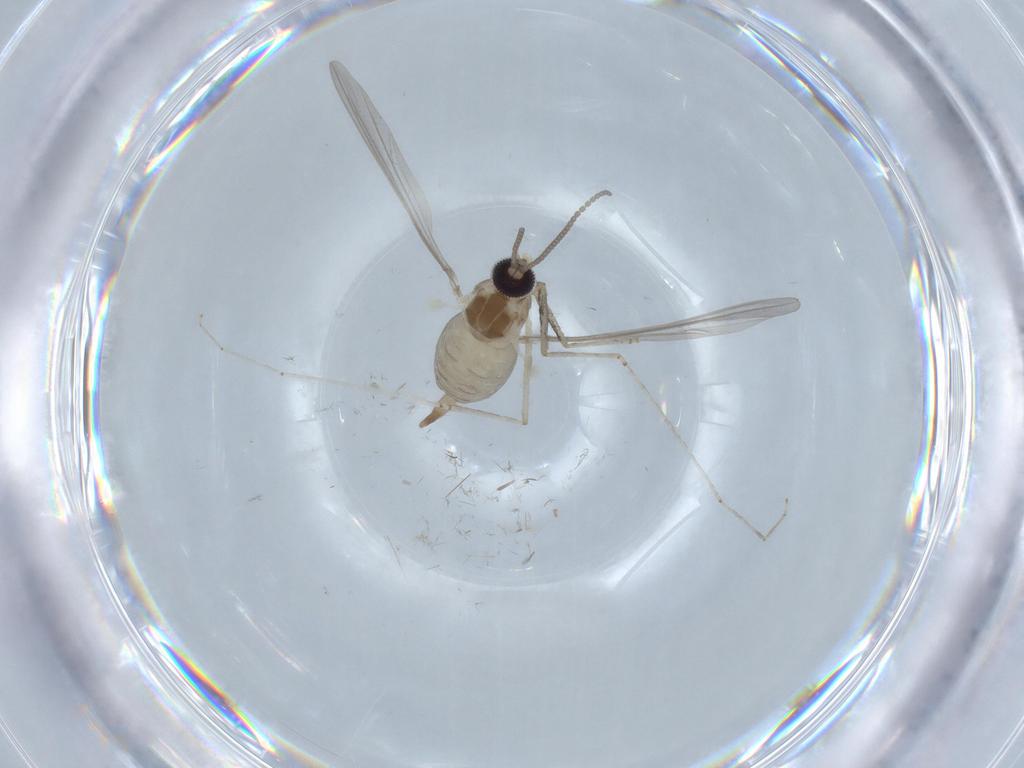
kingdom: Animalia
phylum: Arthropoda
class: Insecta
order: Diptera
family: Cecidomyiidae
